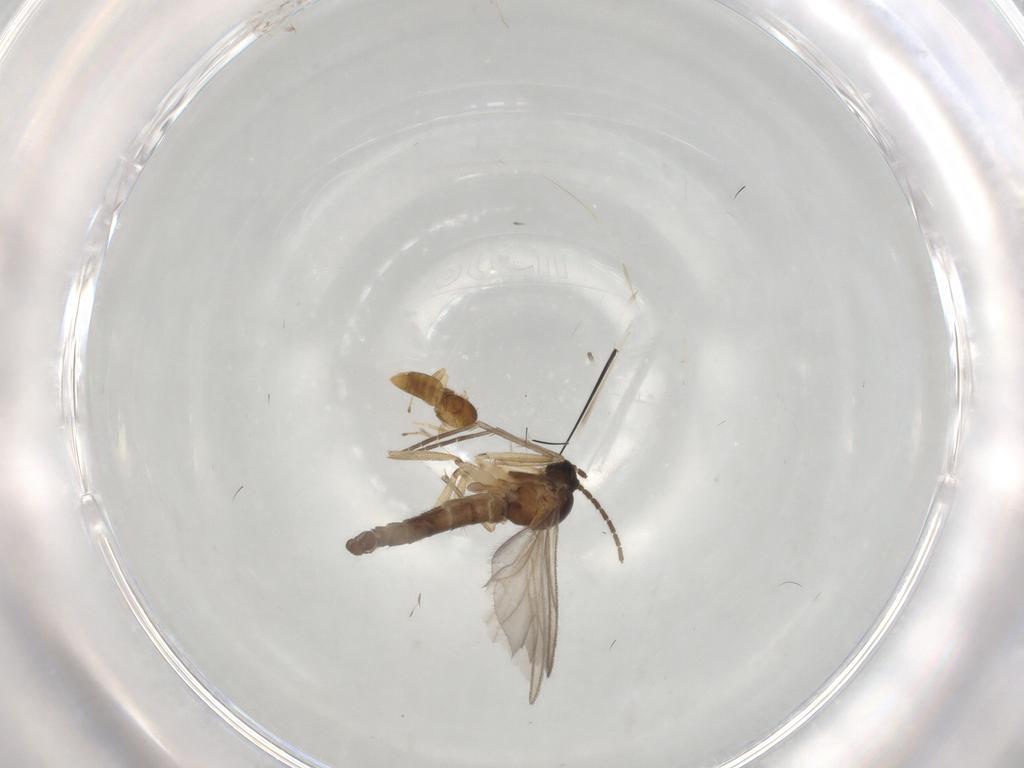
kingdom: Animalia
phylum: Arthropoda
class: Insecta
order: Diptera
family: Sciaridae
